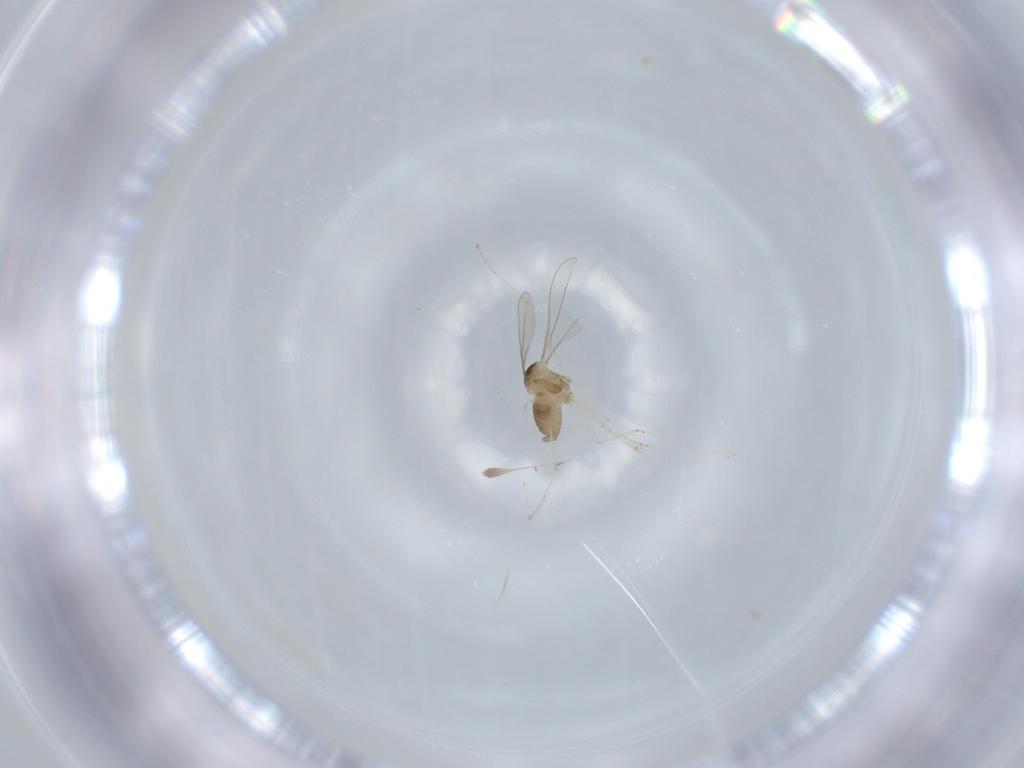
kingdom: Animalia
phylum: Arthropoda
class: Insecta
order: Diptera
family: Cecidomyiidae
